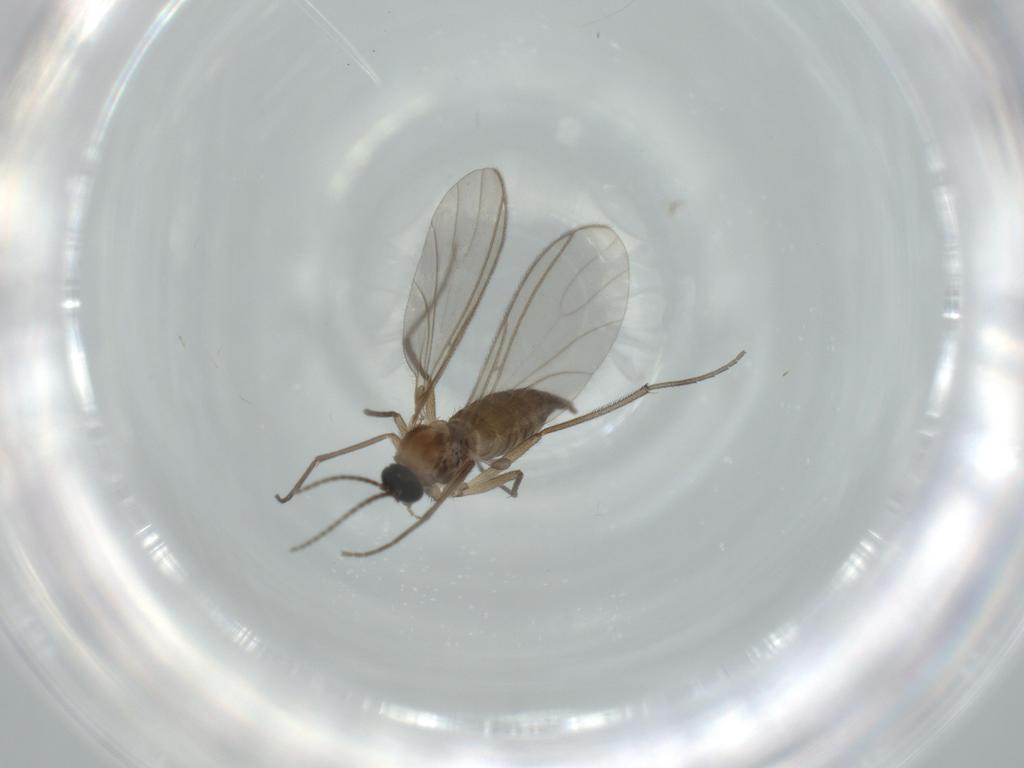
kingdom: Animalia
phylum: Arthropoda
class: Insecta
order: Diptera
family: Sciaridae
